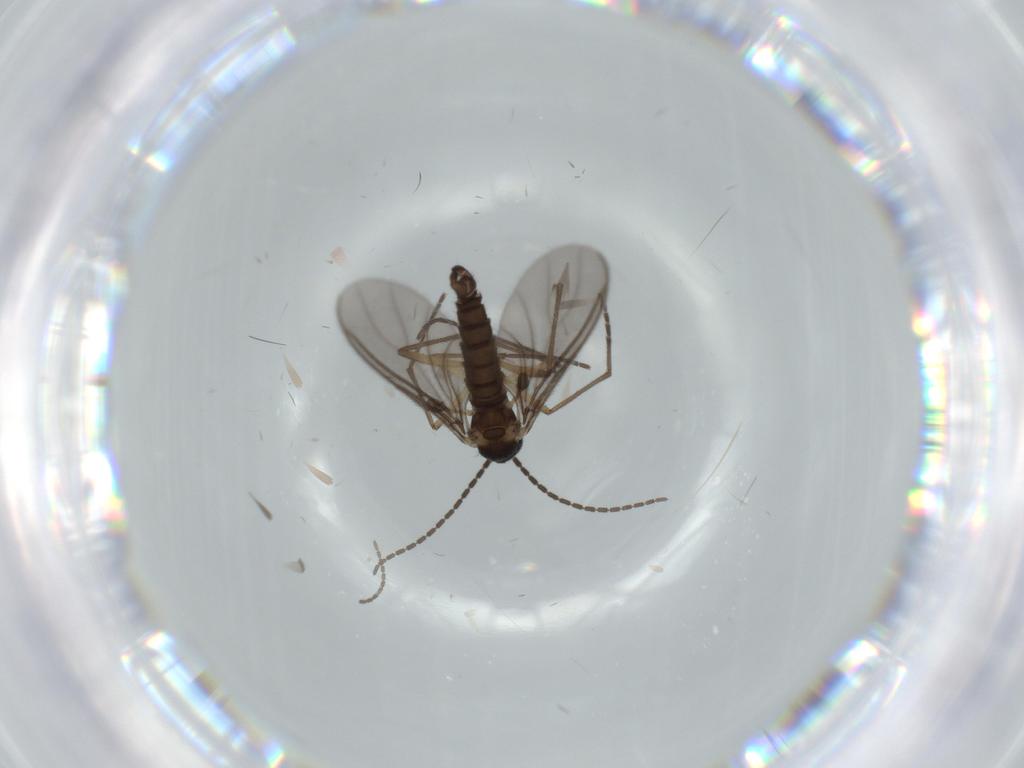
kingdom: Animalia
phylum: Arthropoda
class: Insecta
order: Diptera
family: Sciaridae
